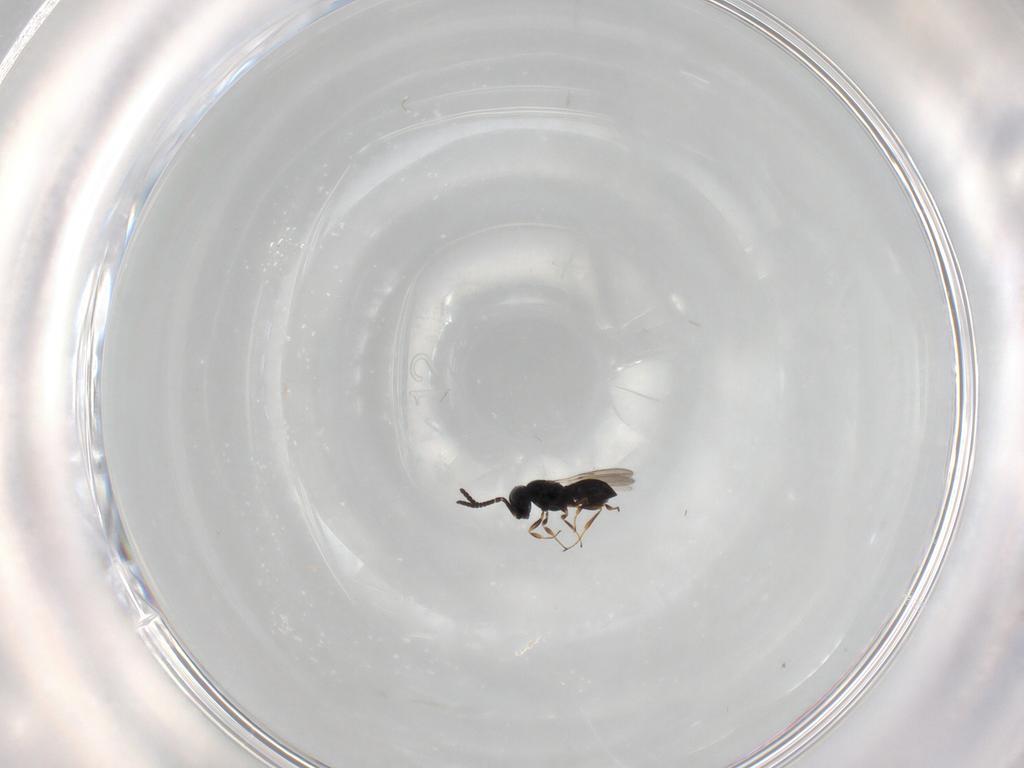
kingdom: Animalia
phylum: Arthropoda
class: Insecta
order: Hymenoptera
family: Scelionidae
